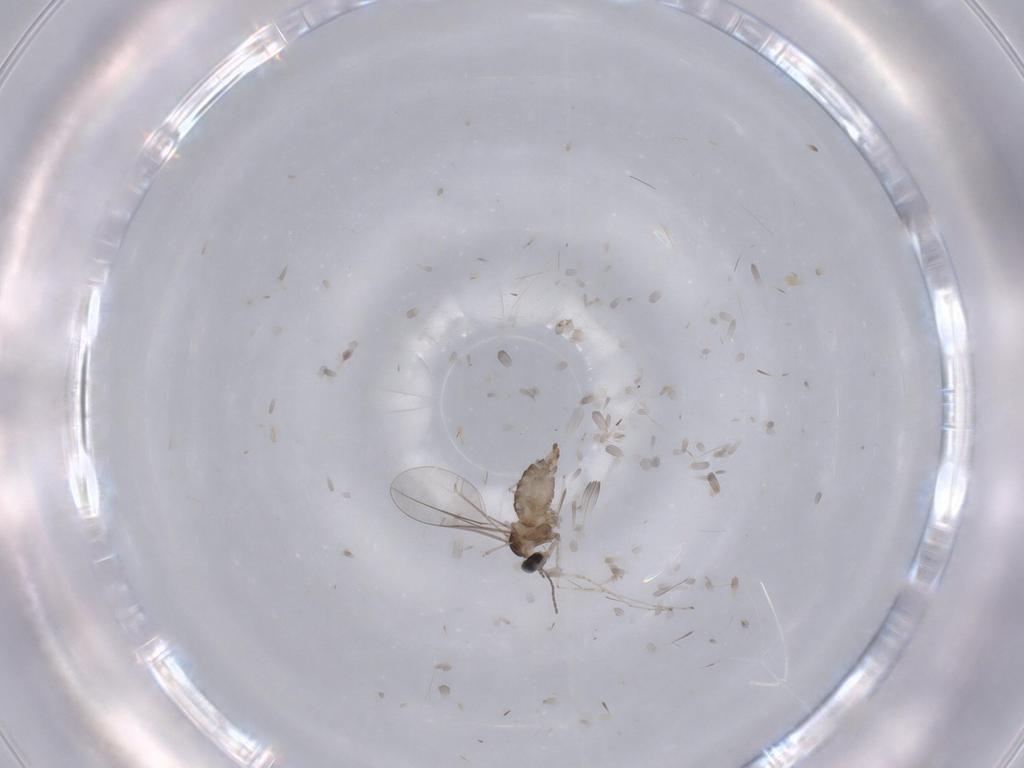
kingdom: Animalia
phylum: Arthropoda
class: Insecta
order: Diptera
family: Cecidomyiidae
